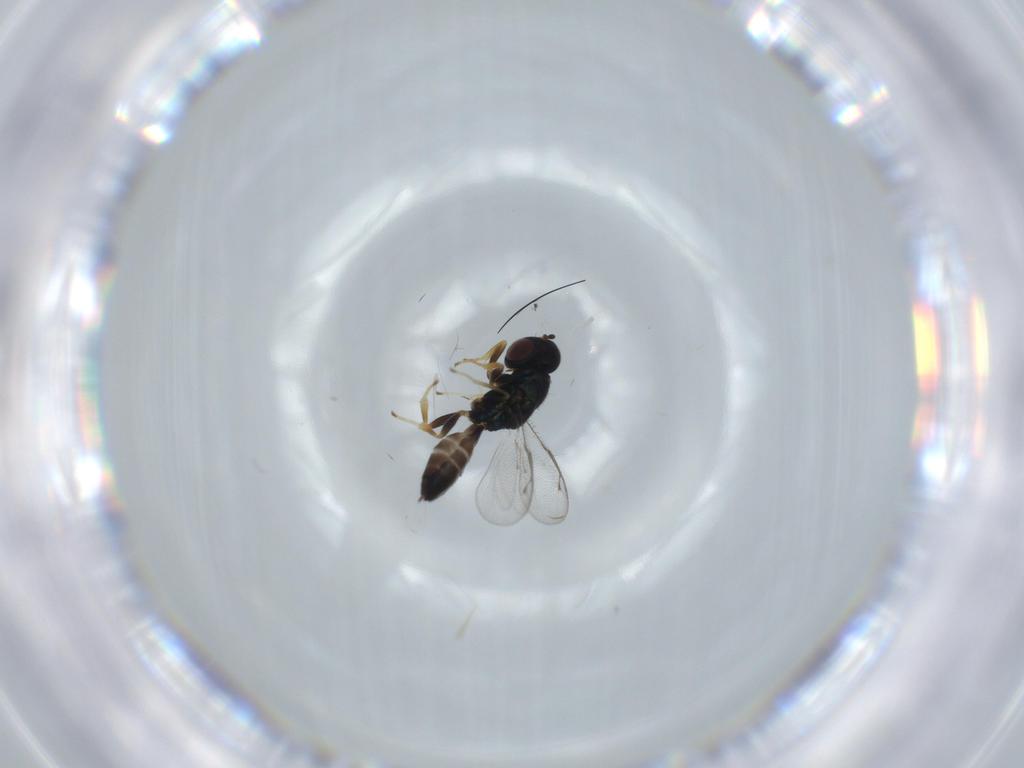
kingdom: Animalia
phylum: Arthropoda
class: Insecta
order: Hymenoptera
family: Pteromalidae
